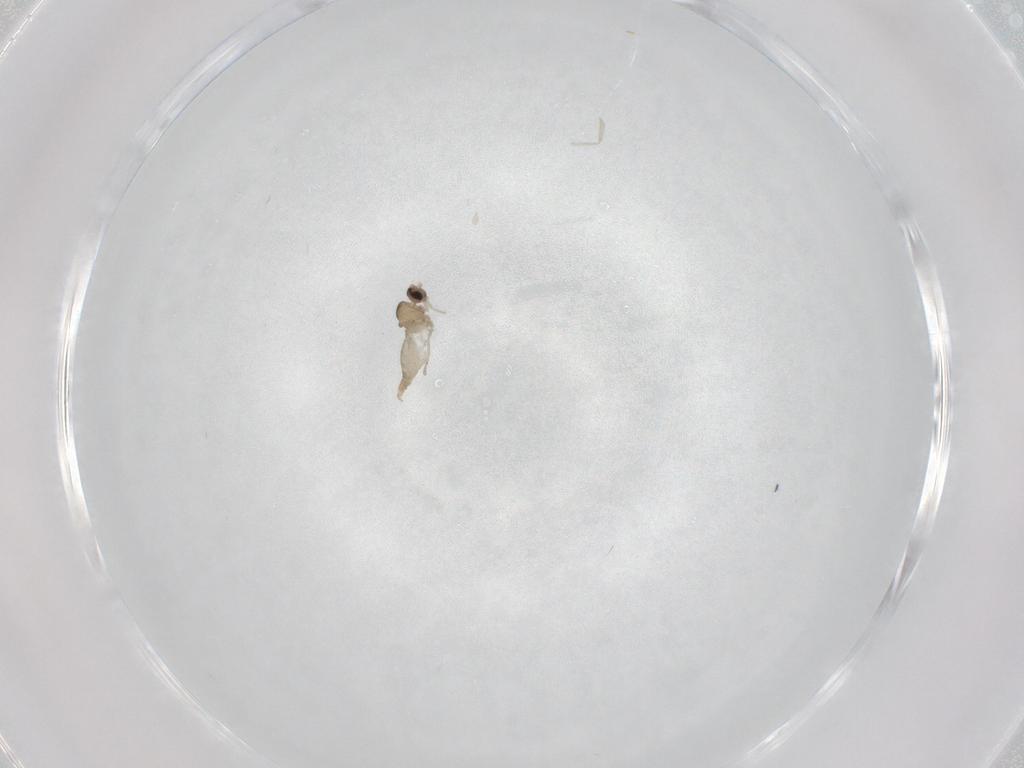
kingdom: Animalia
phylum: Arthropoda
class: Insecta
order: Diptera
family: Cecidomyiidae
